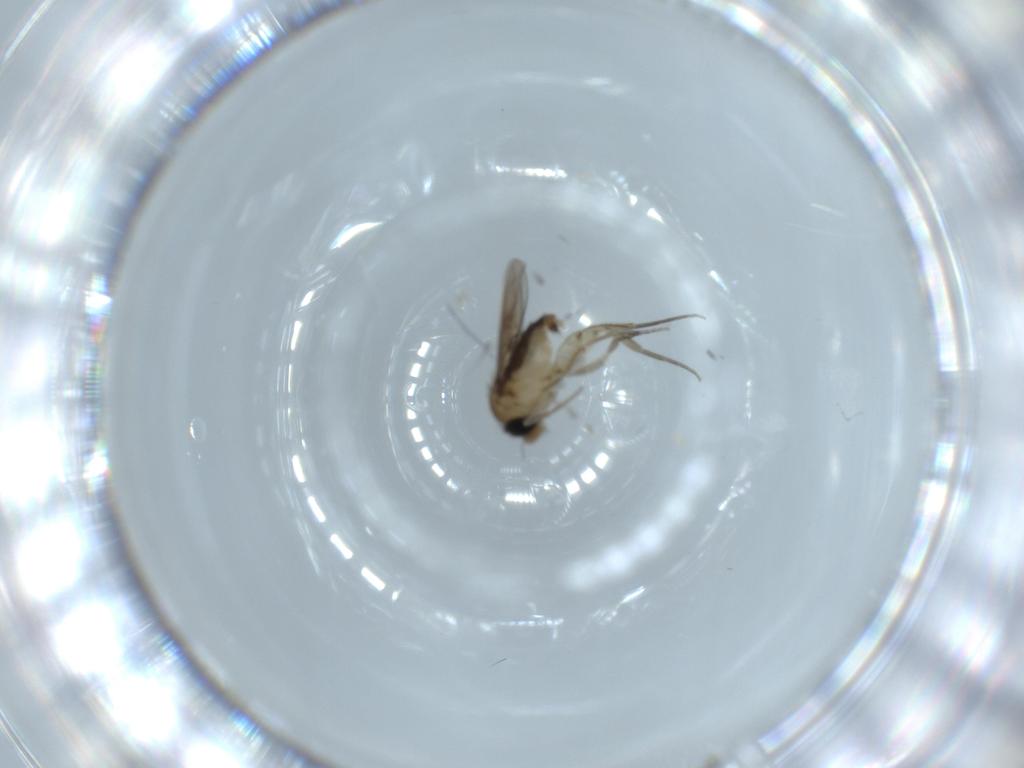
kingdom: Animalia
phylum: Arthropoda
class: Insecta
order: Diptera
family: Phoridae
